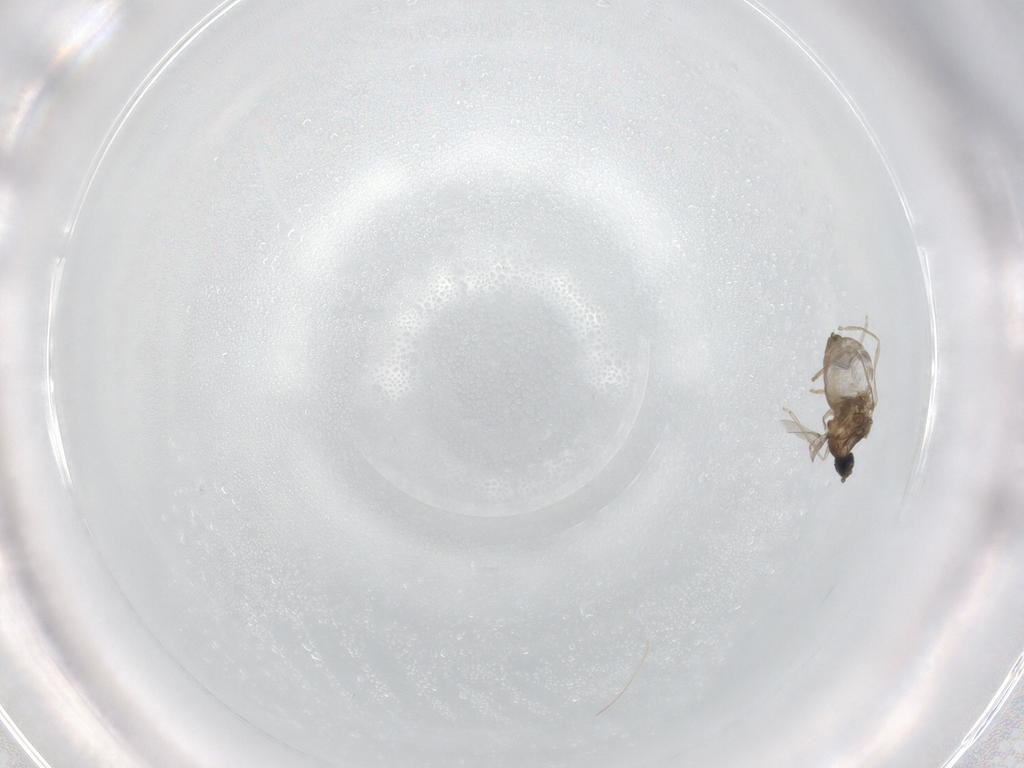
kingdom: Animalia
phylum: Arthropoda
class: Insecta
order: Diptera
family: Cecidomyiidae
